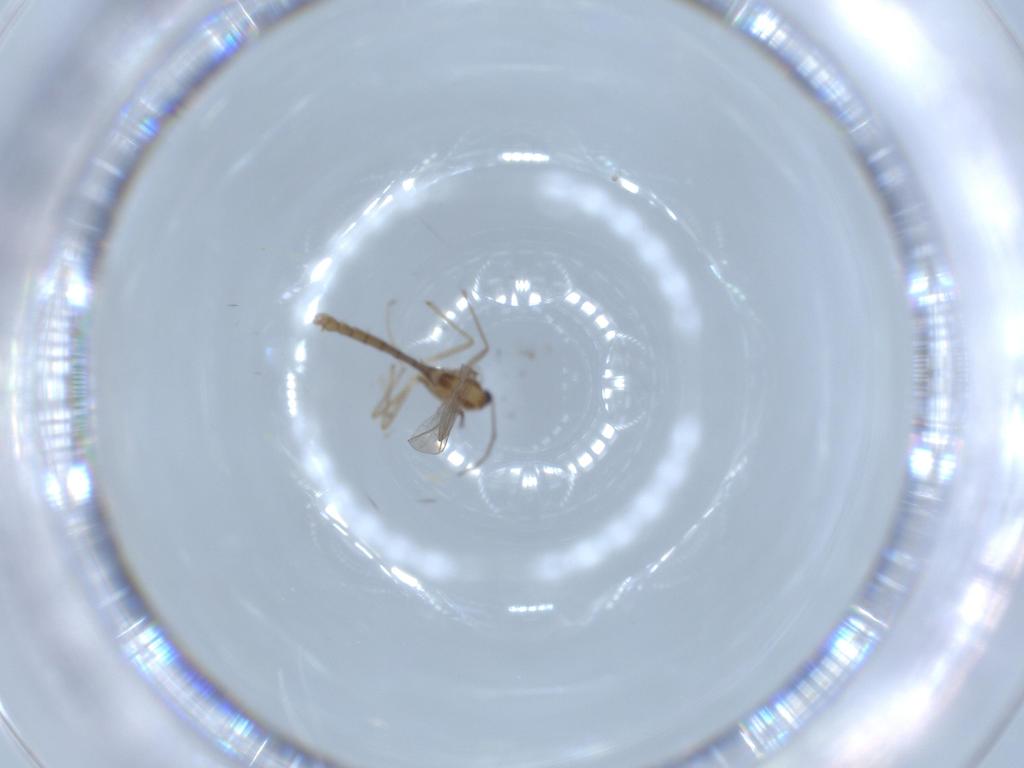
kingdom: Animalia
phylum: Arthropoda
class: Insecta
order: Diptera
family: Chironomidae
